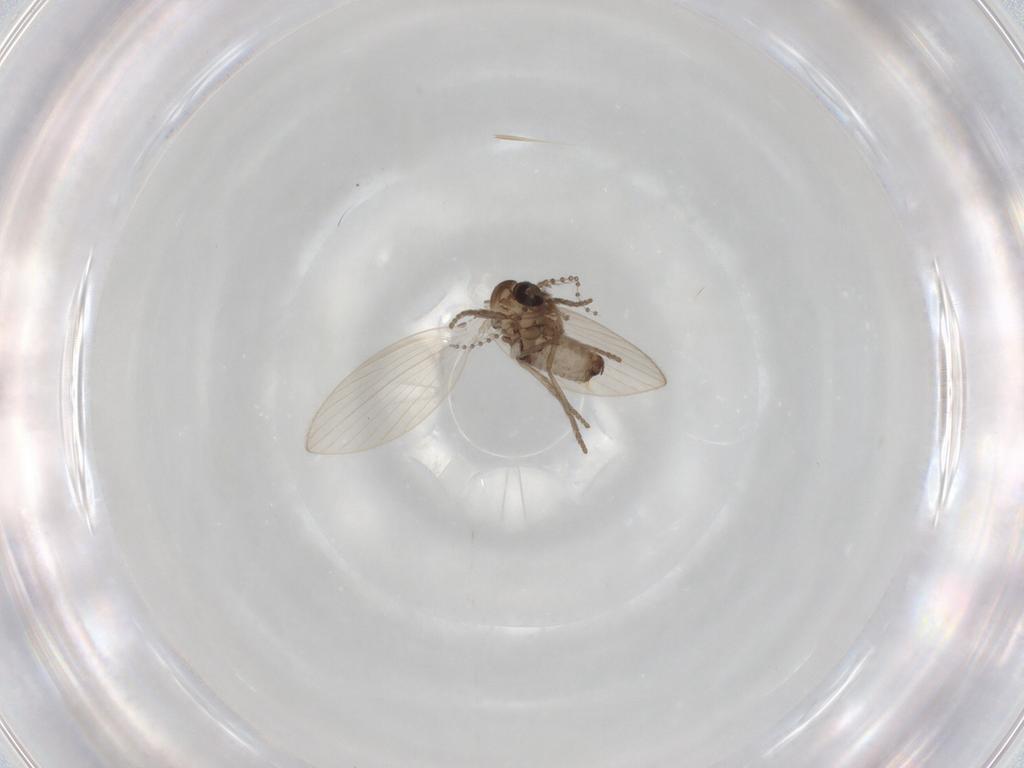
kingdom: Animalia
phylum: Arthropoda
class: Insecta
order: Diptera
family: Psychodidae
